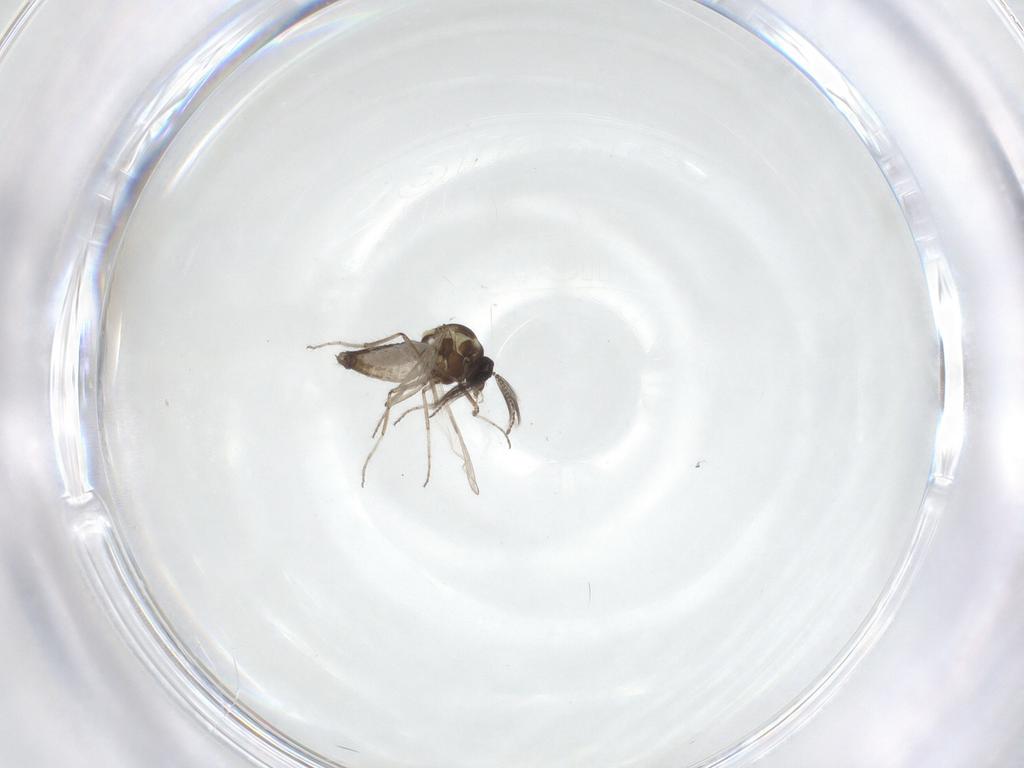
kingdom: Animalia
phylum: Arthropoda
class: Insecta
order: Diptera
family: Ceratopogonidae
